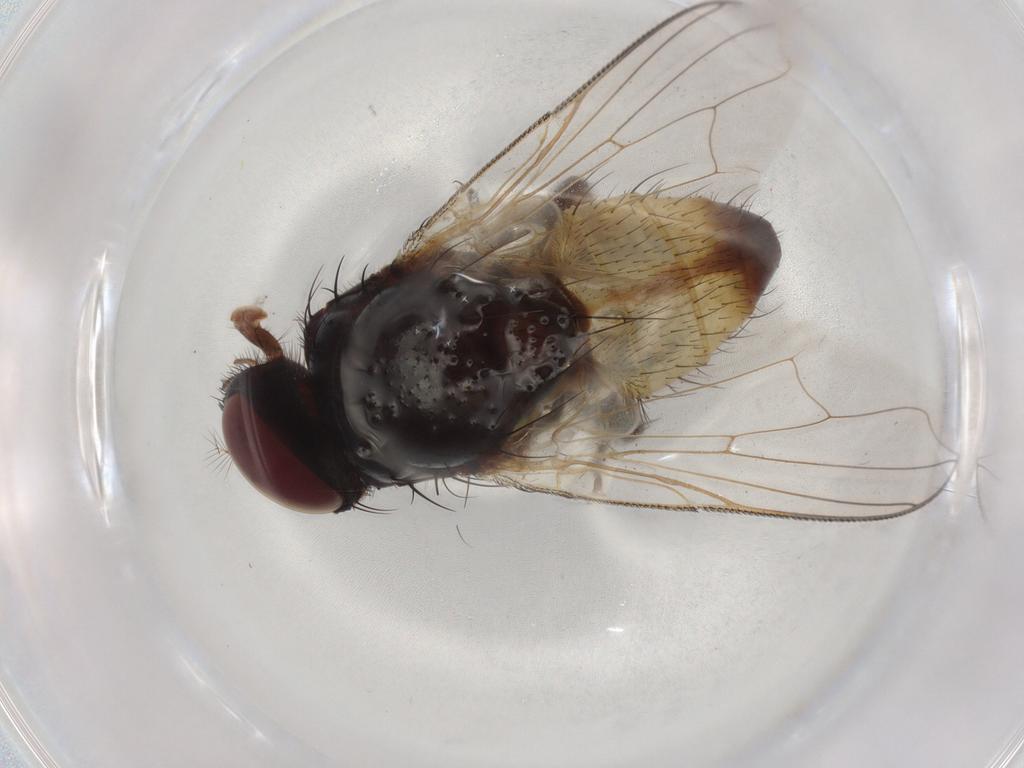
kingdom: Animalia
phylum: Arthropoda
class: Insecta
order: Diptera
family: Muscidae
